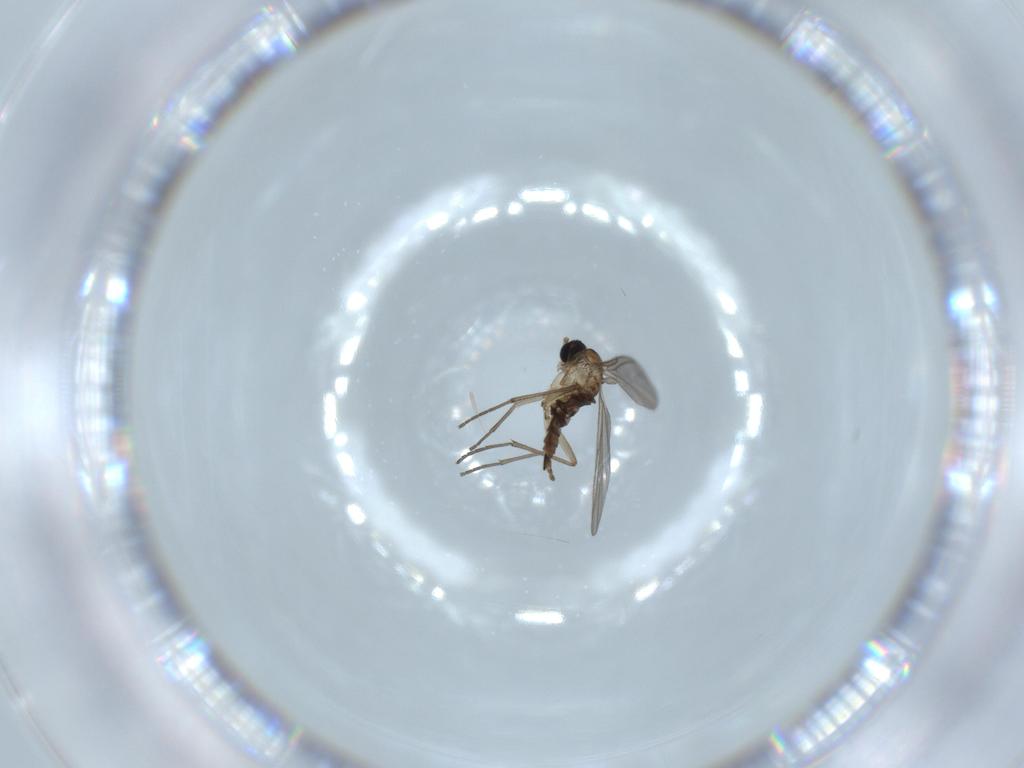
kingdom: Animalia
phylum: Arthropoda
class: Insecta
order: Diptera
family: Sciaridae
